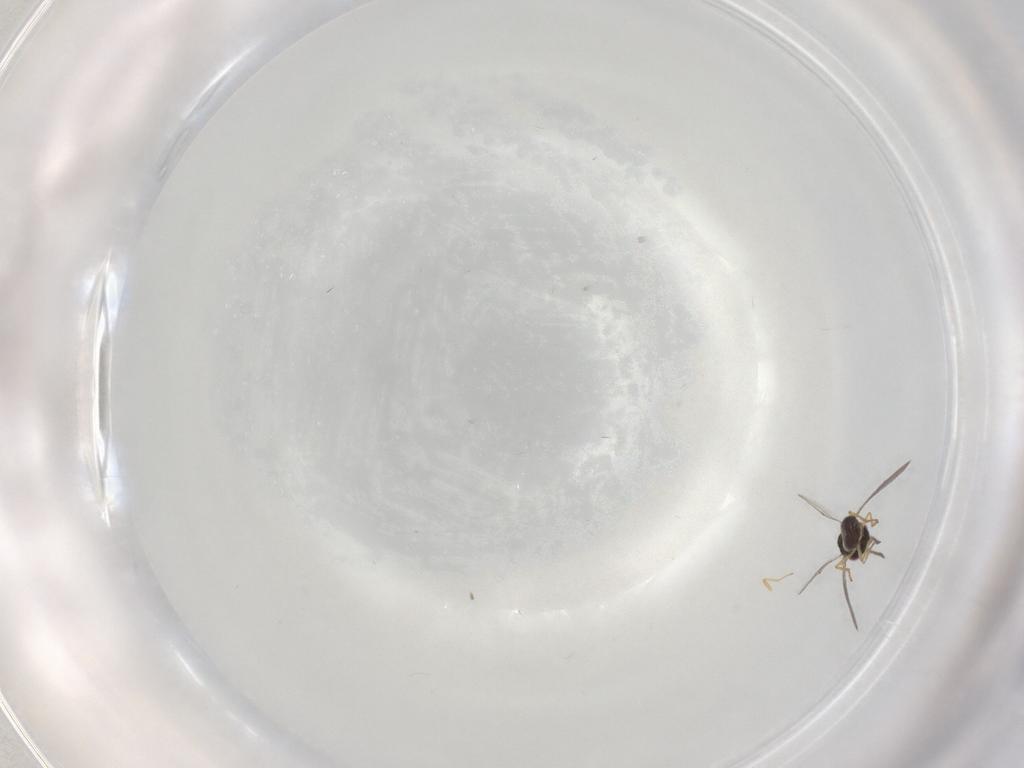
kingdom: Animalia
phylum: Arthropoda
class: Insecta
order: Hymenoptera
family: Eulophidae
